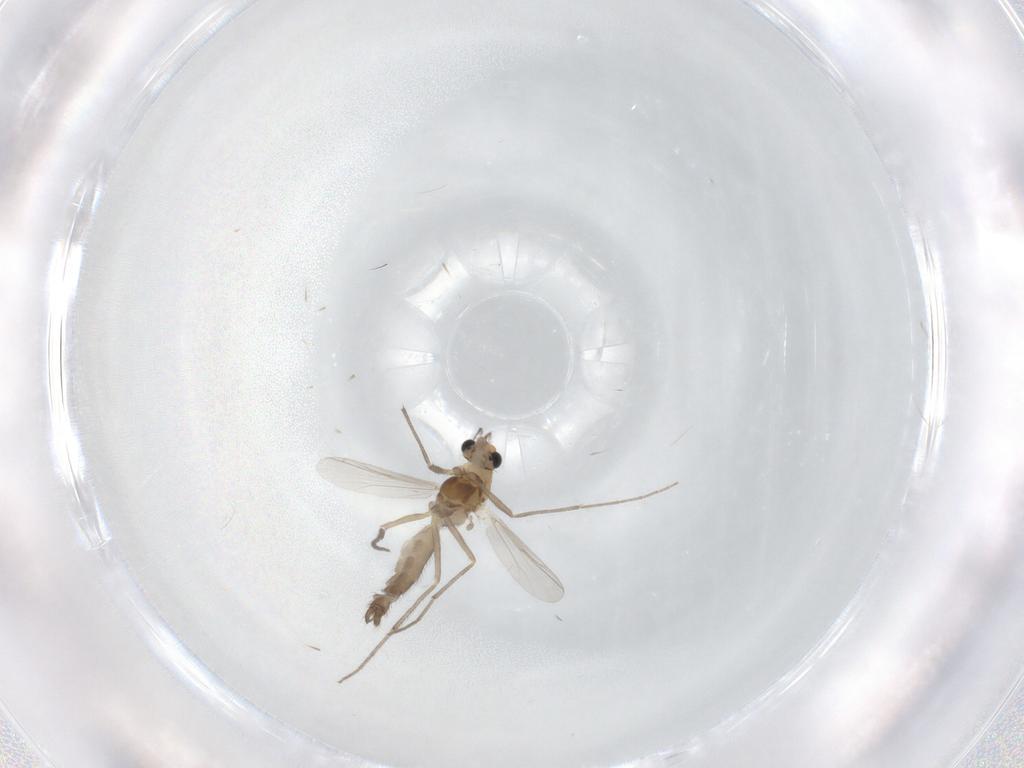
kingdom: Animalia
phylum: Arthropoda
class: Insecta
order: Diptera
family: Chironomidae
